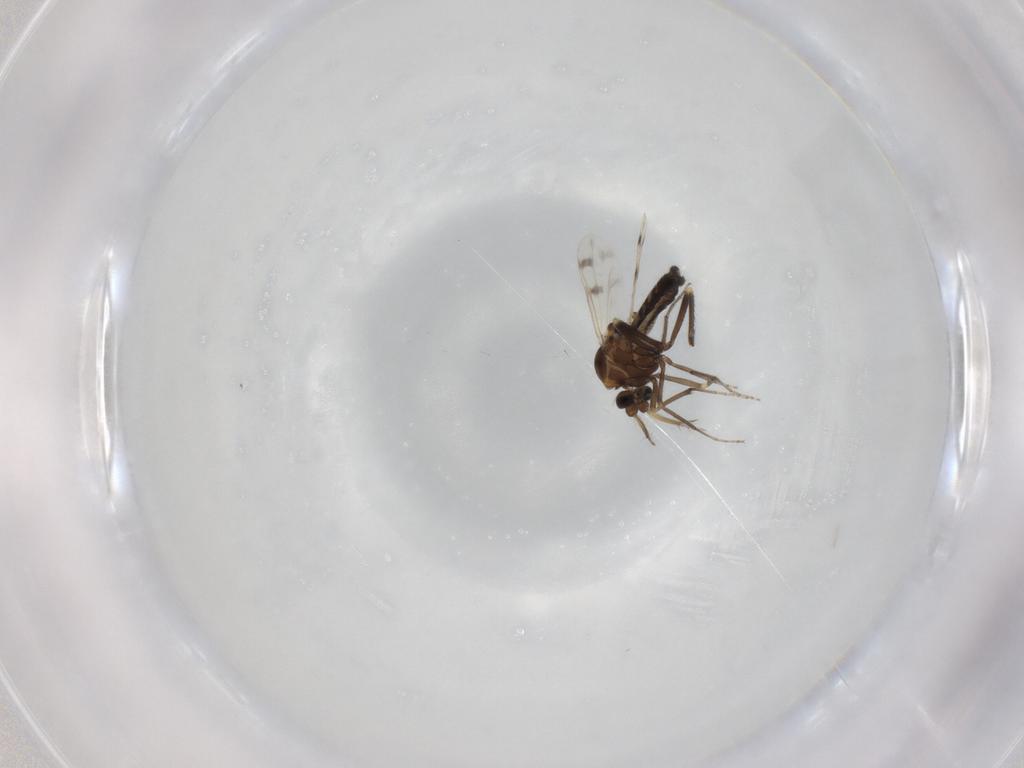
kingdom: Animalia
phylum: Arthropoda
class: Insecta
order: Diptera
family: Ceratopogonidae
